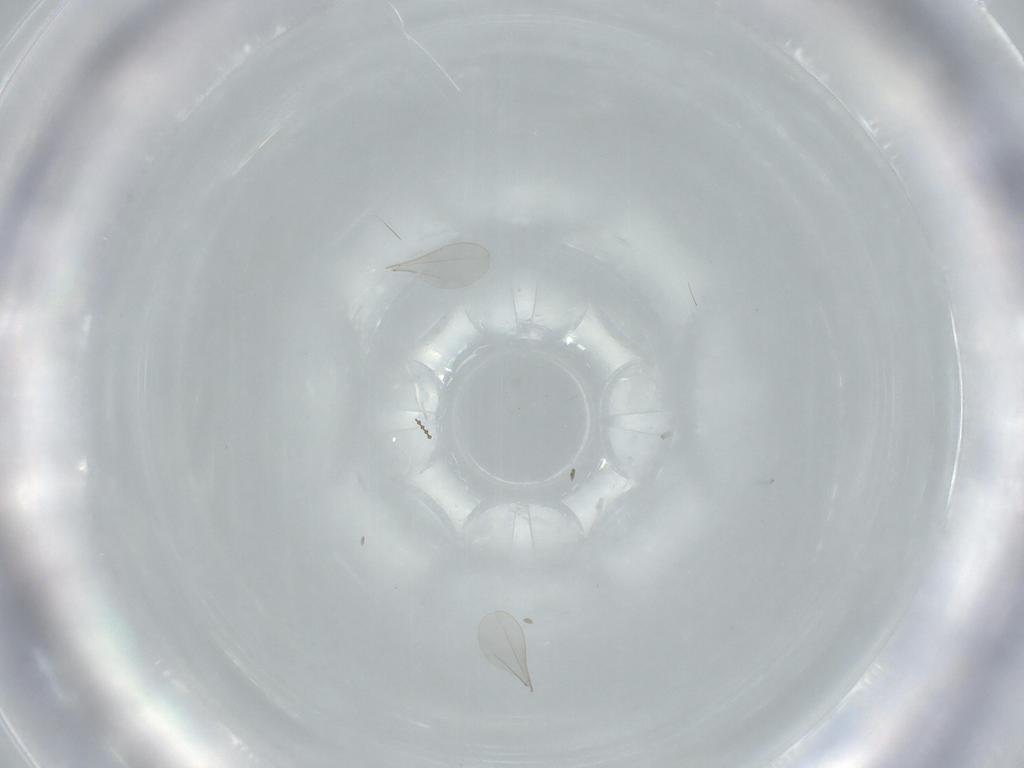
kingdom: Animalia
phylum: Arthropoda
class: Insecta
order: Diptera
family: Cecidomyiidae
